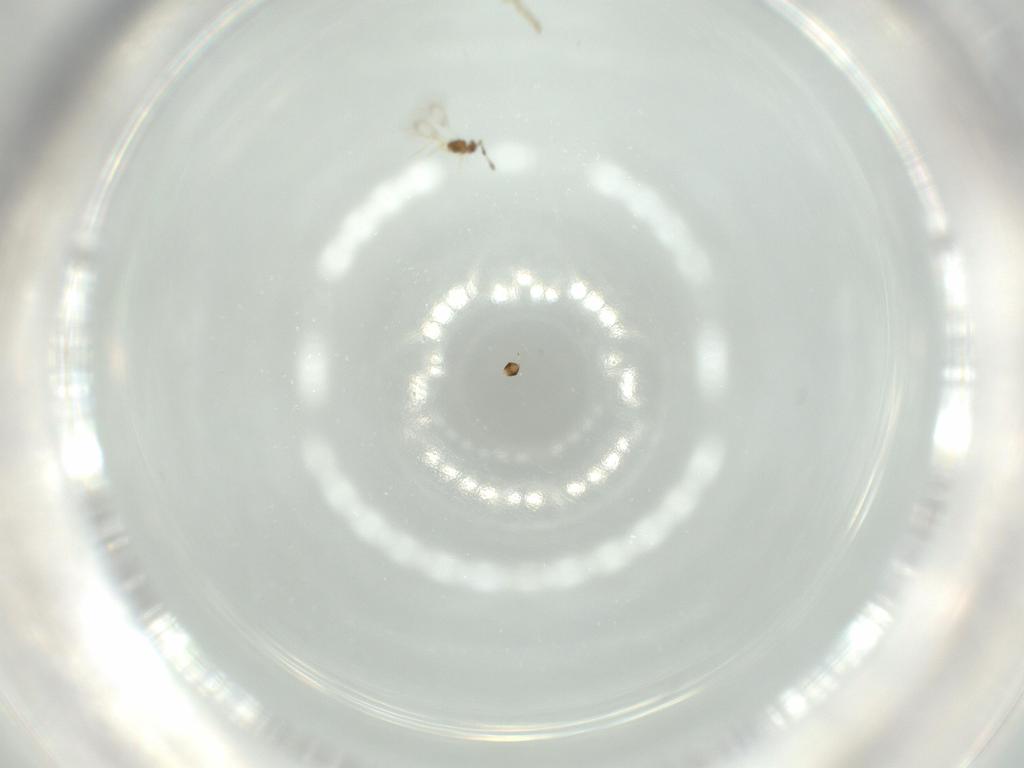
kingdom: Animalia
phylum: Arthropoda
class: Insecta
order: Hymenoptera
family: Mymarommatidae
